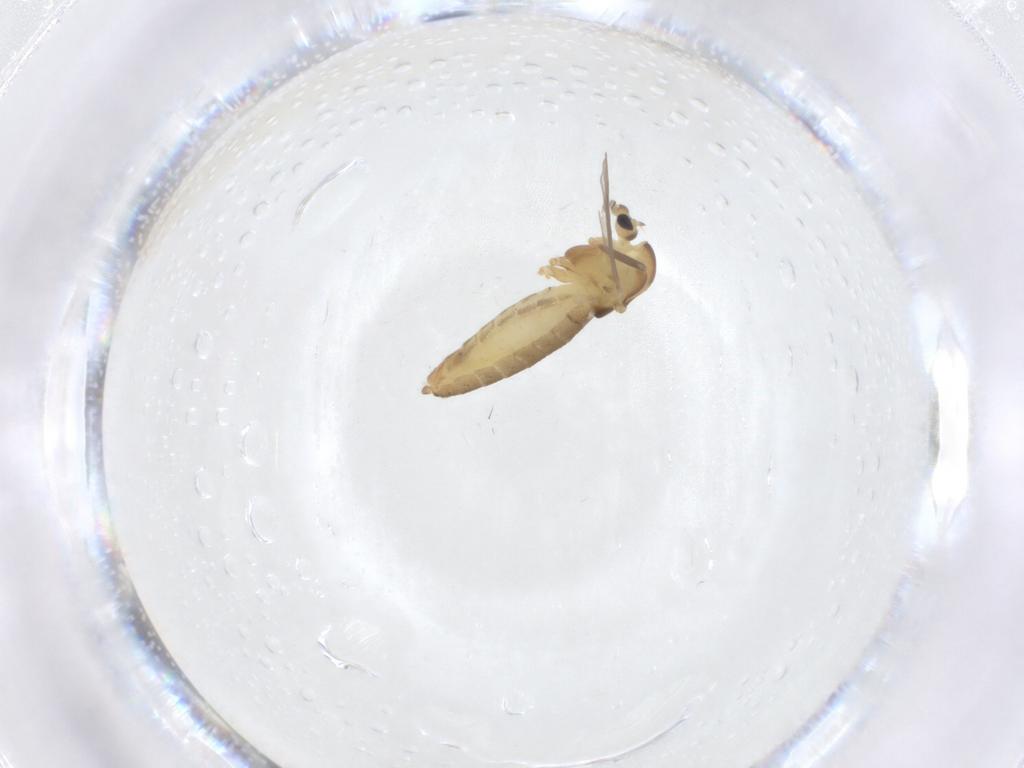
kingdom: Animalia
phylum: Arthropoda
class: Insecta
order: Diptera
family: Chironomidae
